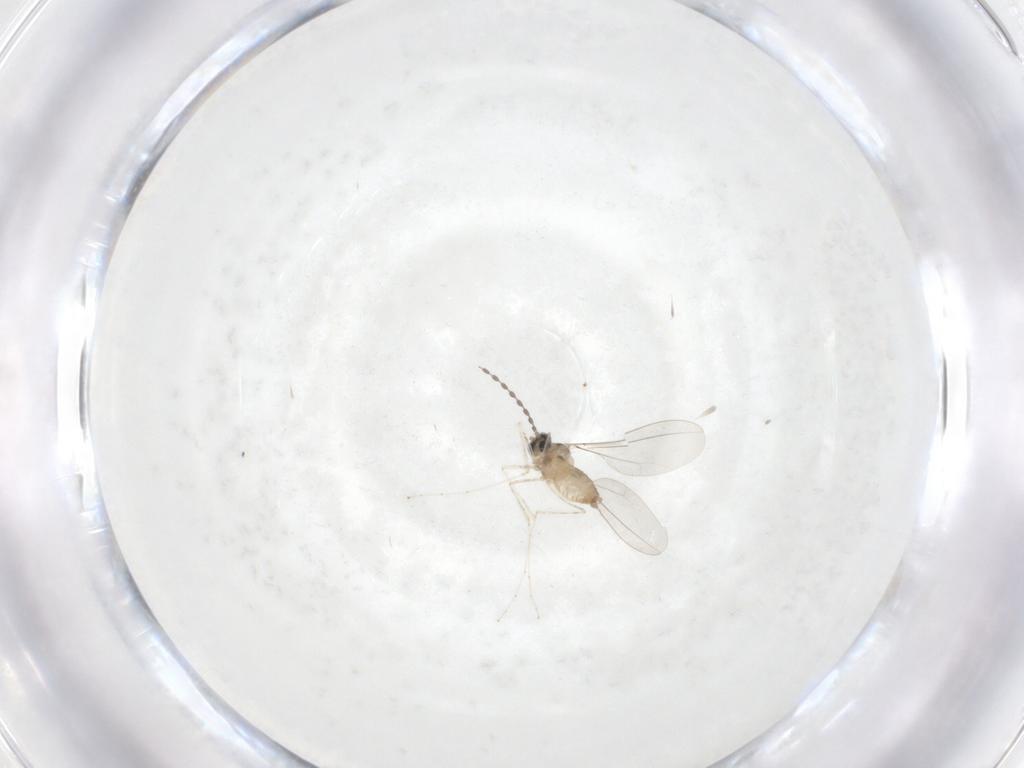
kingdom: Animalia
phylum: Arthropoda
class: Insecta
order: Diptera
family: Cecidomyiidae
